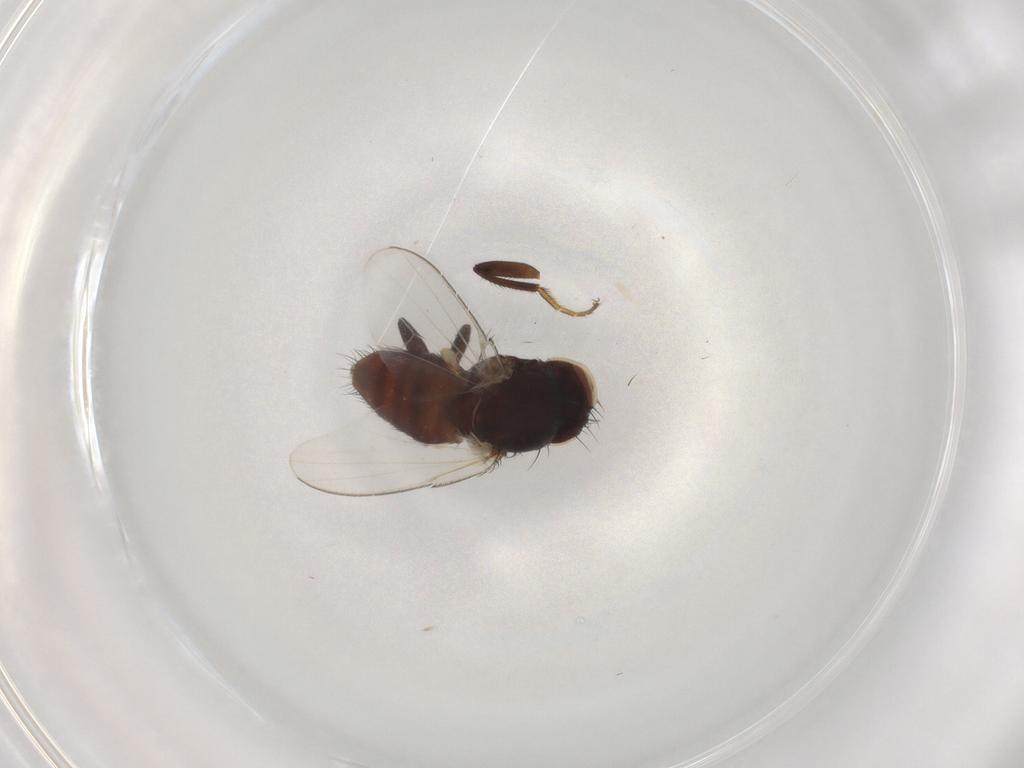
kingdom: Animalia
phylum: Arthropoda
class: Insecta
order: Diptera
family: Milichiidae
